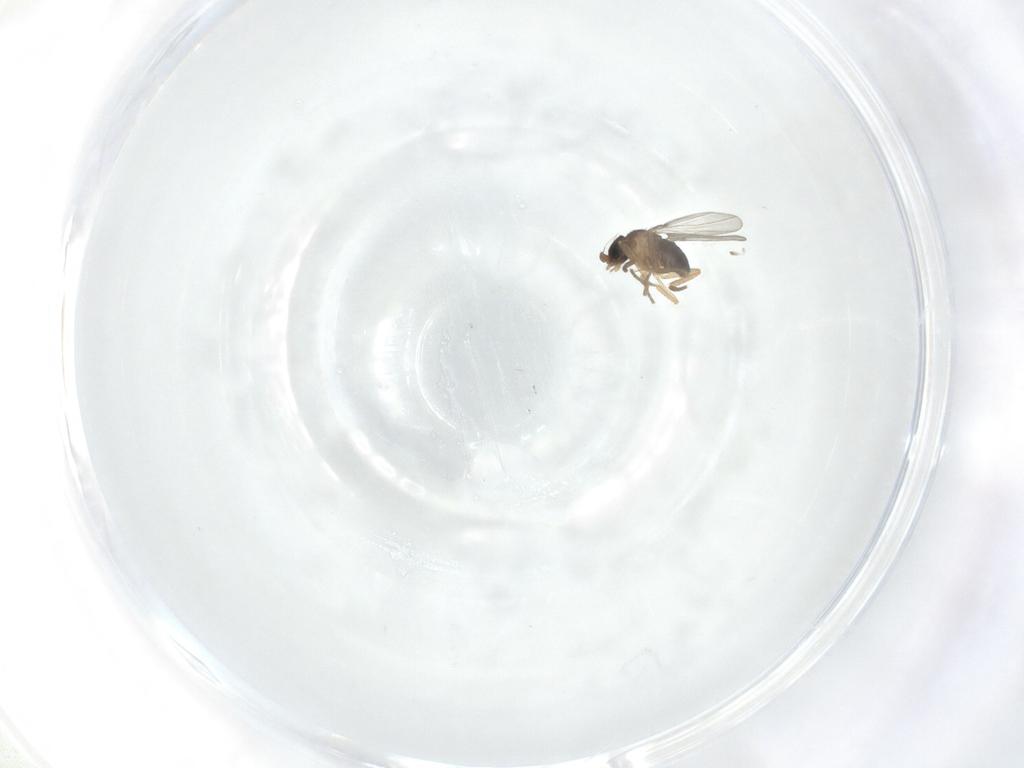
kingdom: Animalia
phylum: Arthropoda
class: Insecta
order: Diptera
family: Phoridae
